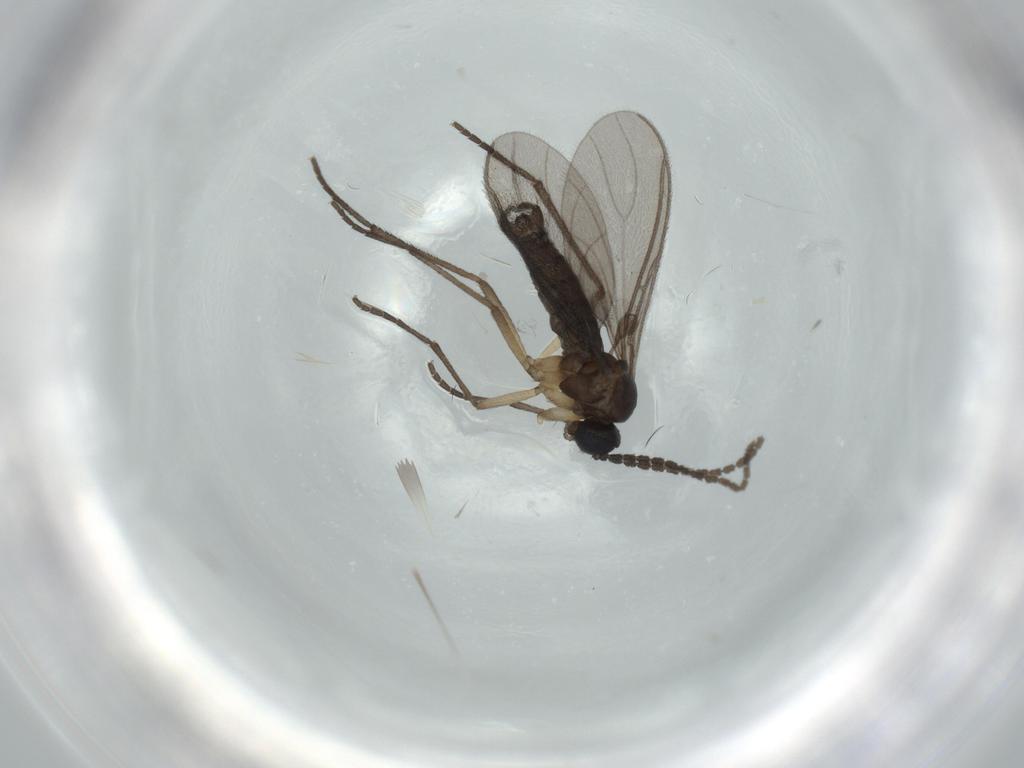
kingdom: Animalia
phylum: Arthropoda
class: Insecta
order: Diptera
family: Sciaridae
